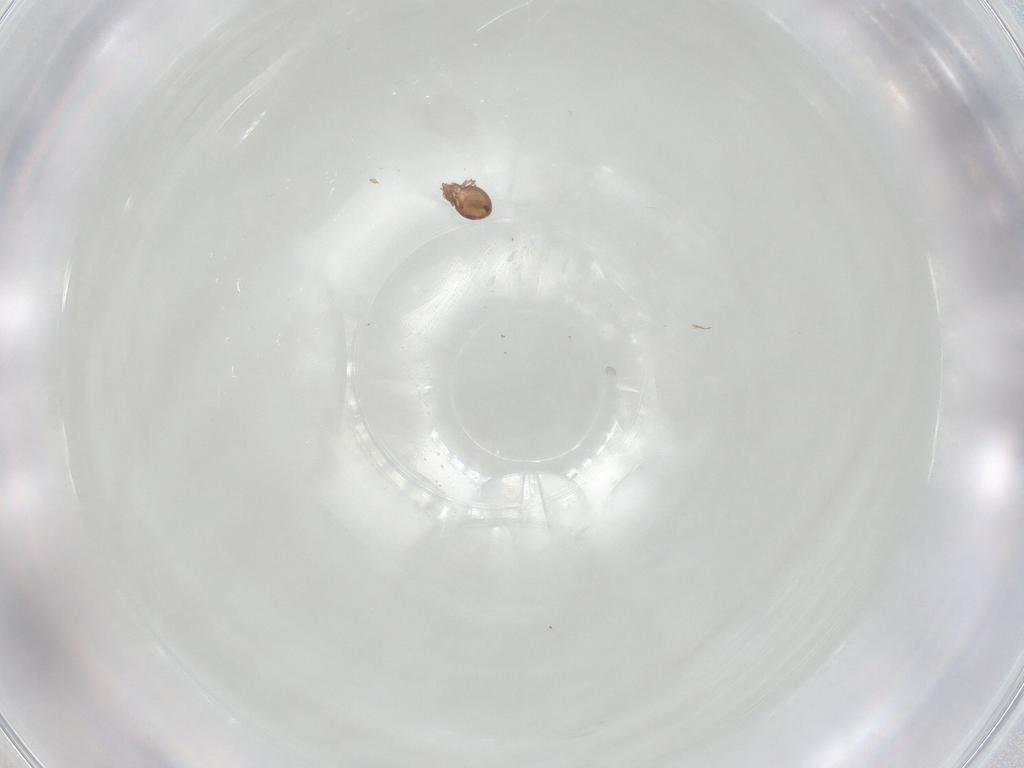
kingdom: Animalia
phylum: Arthropoda
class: Arachnida
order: Sarcoptiformes
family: Oribatulidae
